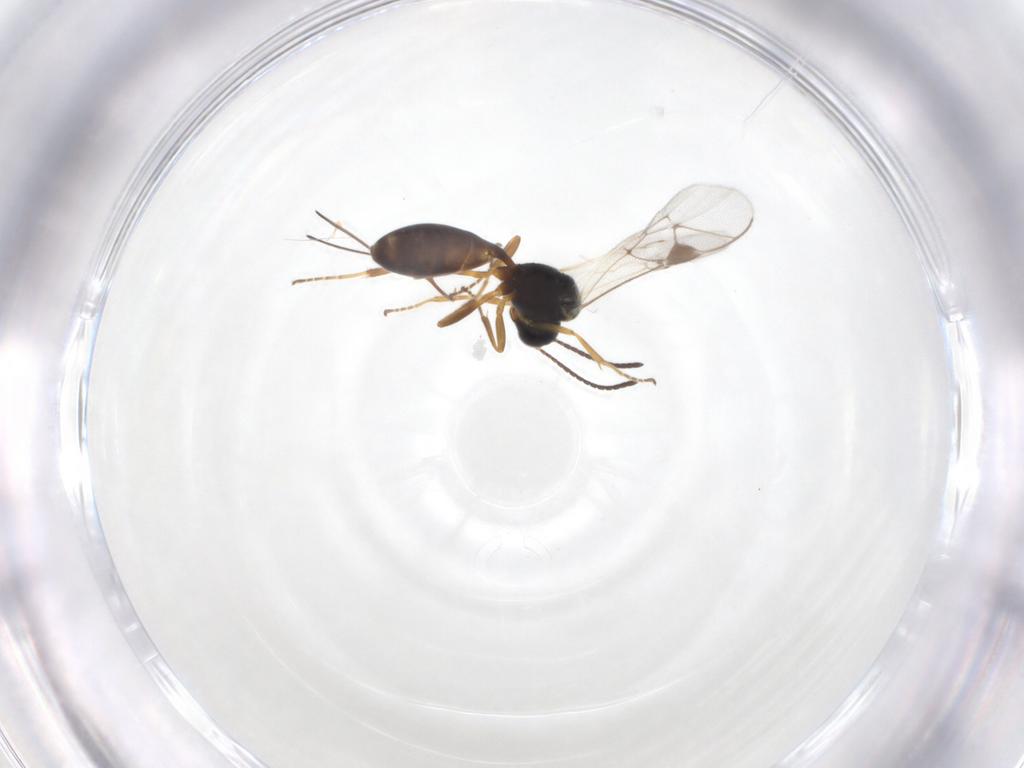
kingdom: Animalia
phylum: Arthropoda
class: Insecta
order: Hymenoptera
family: Ichneumonidae
